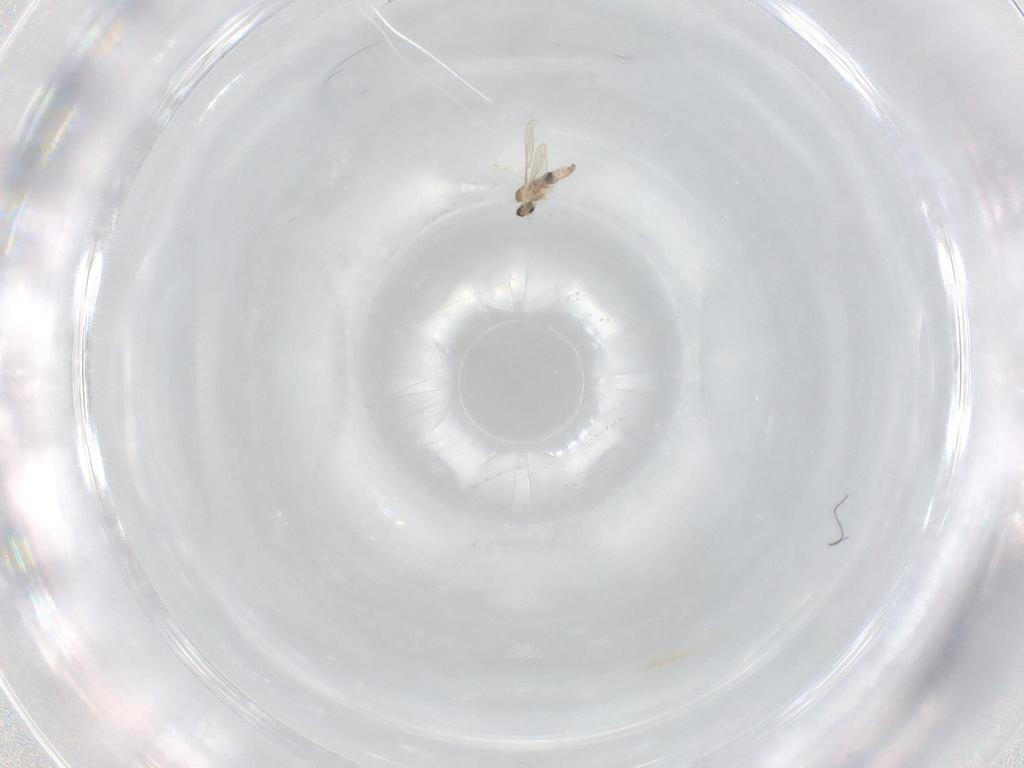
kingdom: Animalia
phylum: Arthropoda
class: Insecta
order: Diptera
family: Cecidomyiidae
